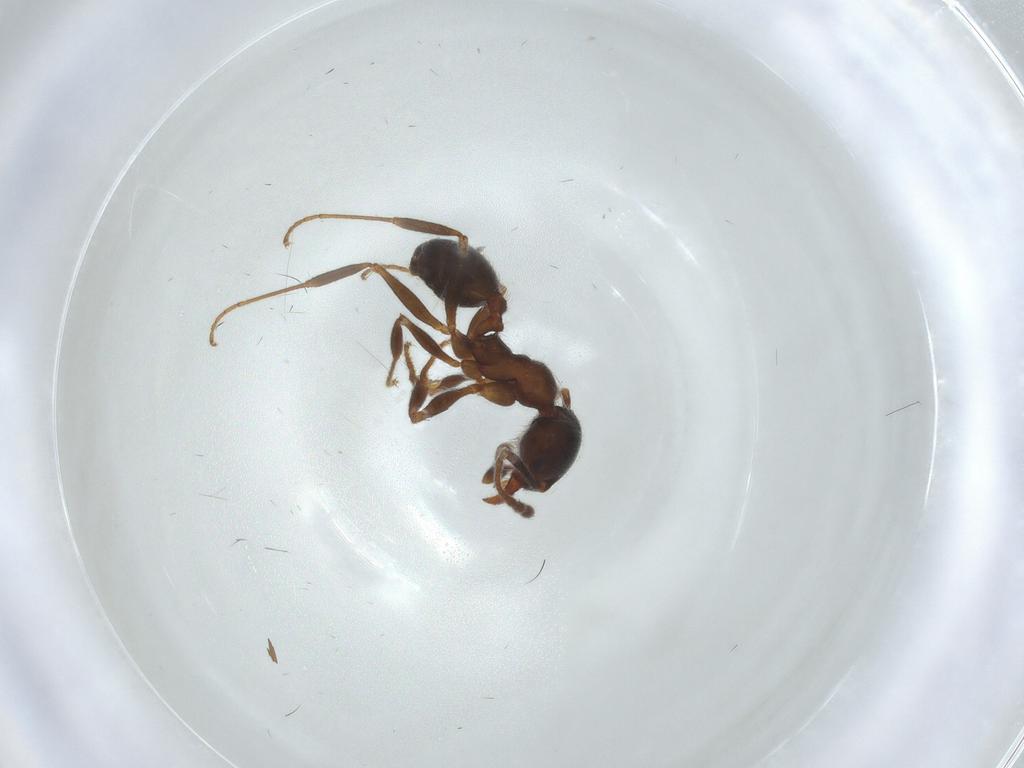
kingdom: Animalia
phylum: Arthropoda
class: Insecta
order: Hymenoptera
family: Formicidae
